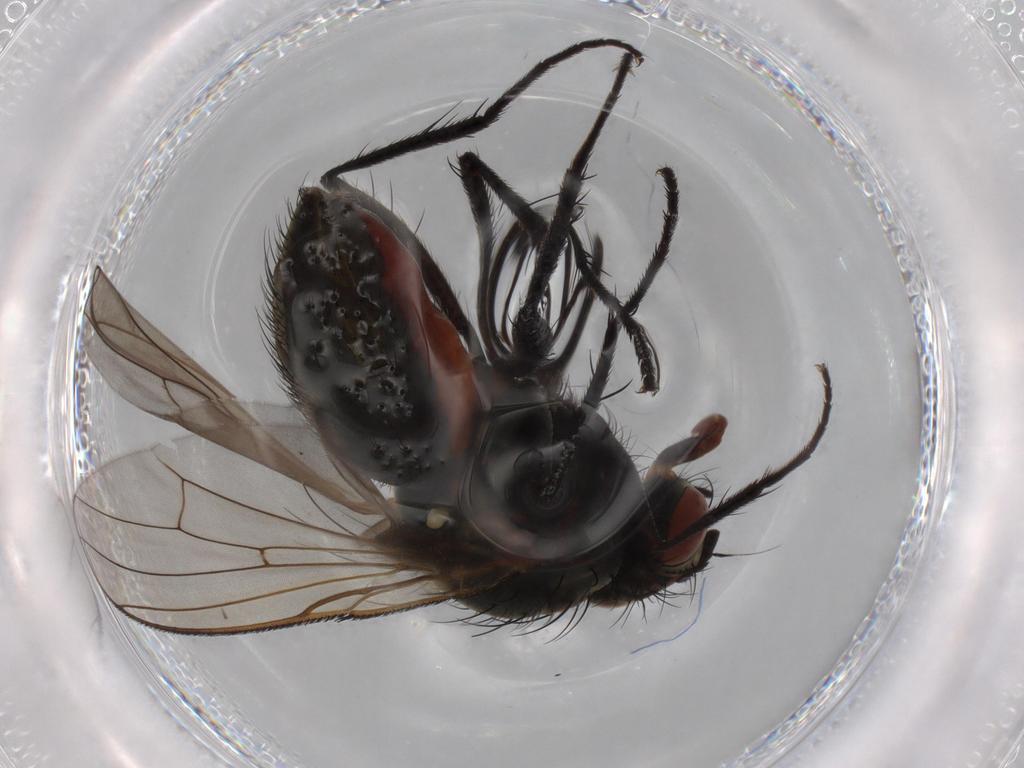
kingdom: Animalia
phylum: Arthropoda
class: Insecta
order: Diptera
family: Anthomyiidae
